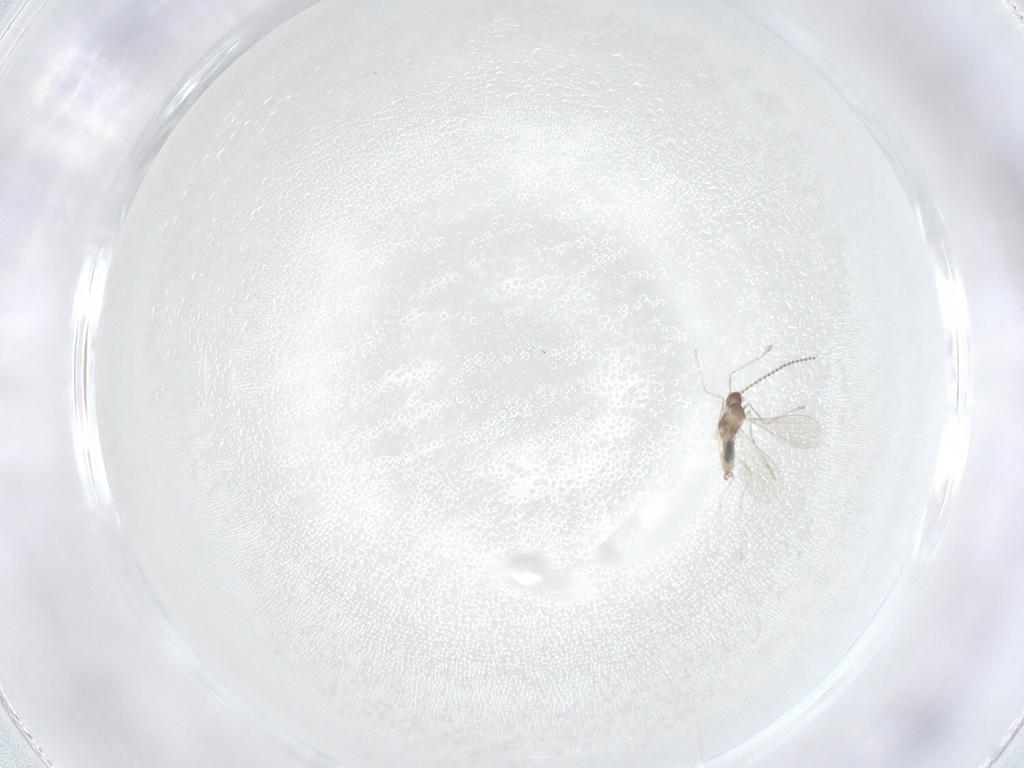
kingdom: Animalia
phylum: Arthropoda
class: Insecta
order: Diptera
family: Cecidomyiidae
